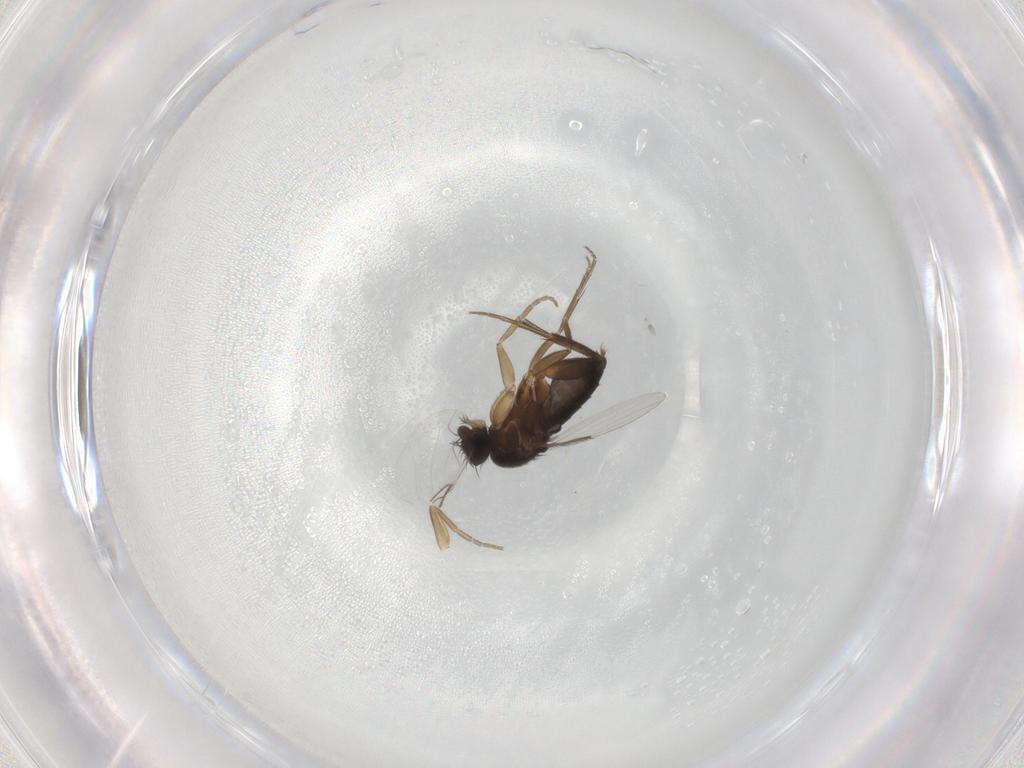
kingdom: Animalia
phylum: Arthropoda
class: Insecta
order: Diptera
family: Phoridae
